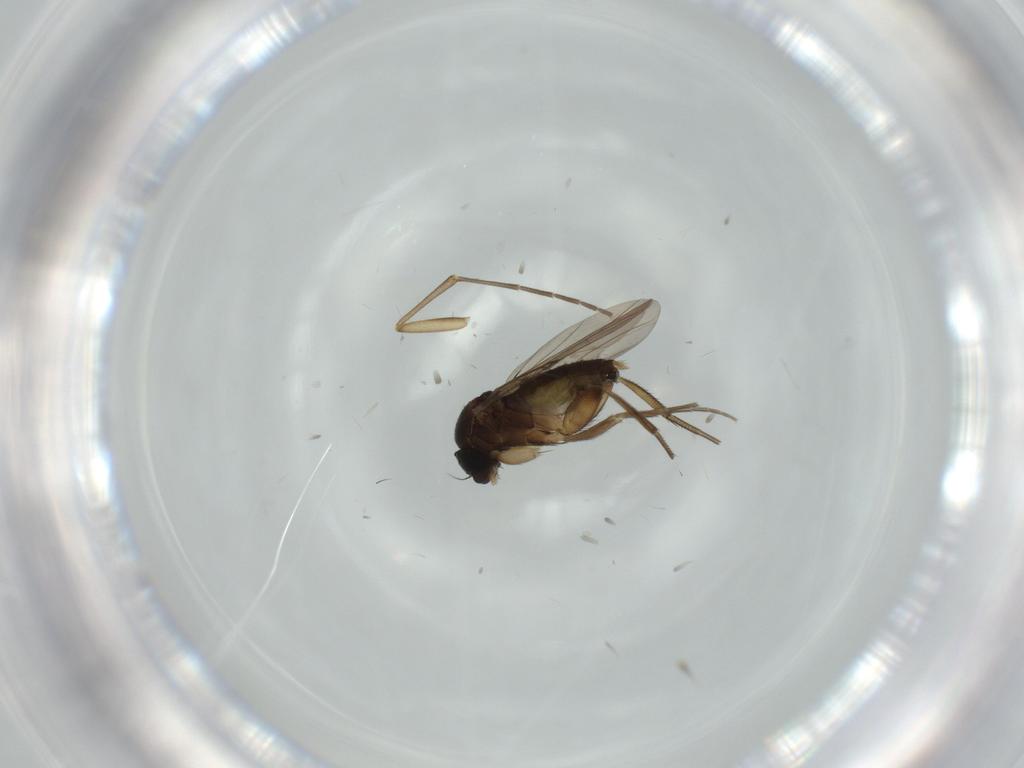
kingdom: Animalia
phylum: Arthropoda
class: Insecta
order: Diptera
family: Phoridae
